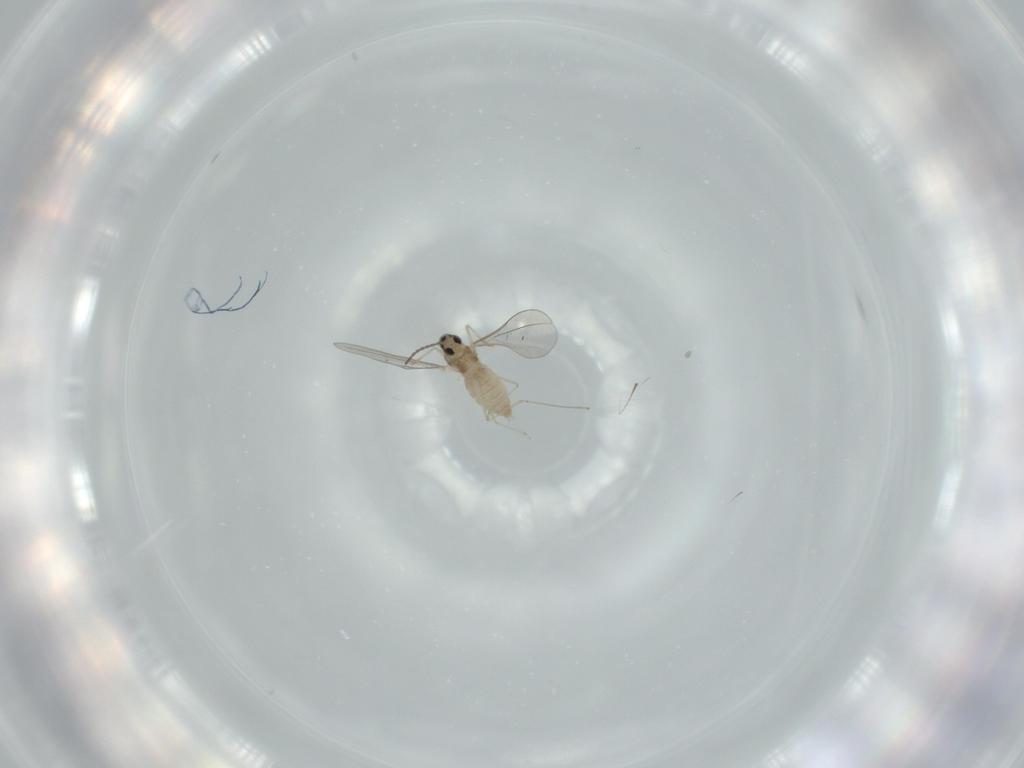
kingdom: Animalia
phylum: Arthropoda
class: Insecta
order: Diptera
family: Cecidomyiidae
